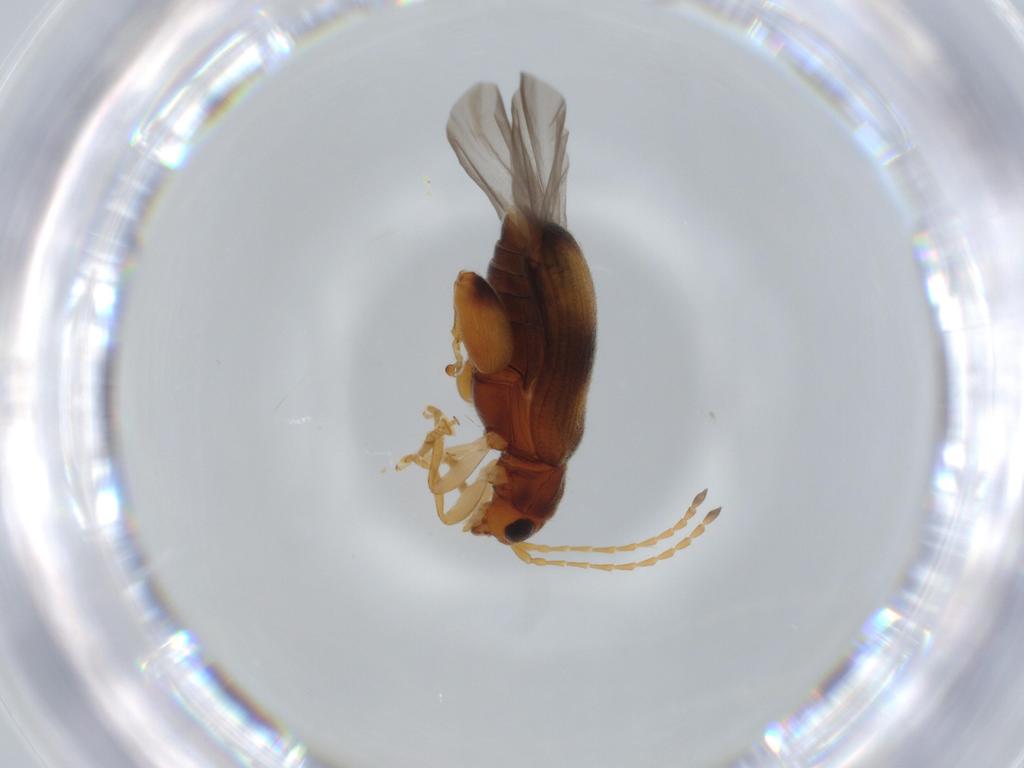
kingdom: Animalia
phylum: Arthropoda
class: Insecta
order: Coleoptera
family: Chrysomelidae
